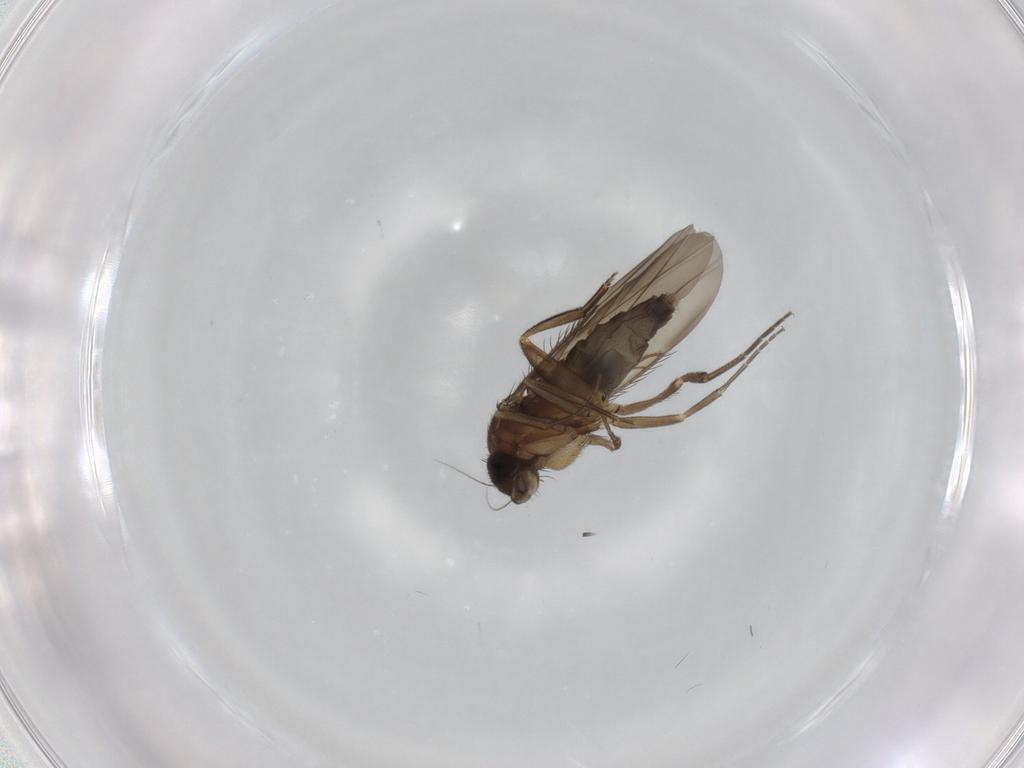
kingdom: Animalia
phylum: Arthropoda
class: Insecta
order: Diptera
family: Phoridae
